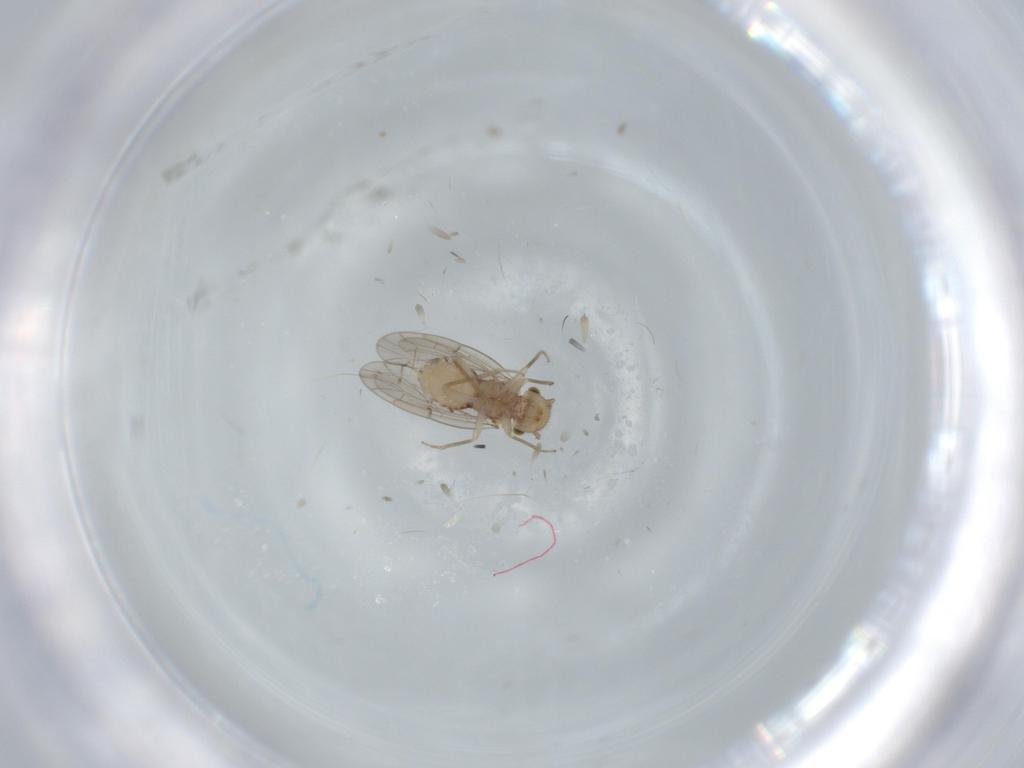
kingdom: Animalia
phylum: Arthropoda
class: Insecta
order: Psocodea
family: Ectopsocidae
